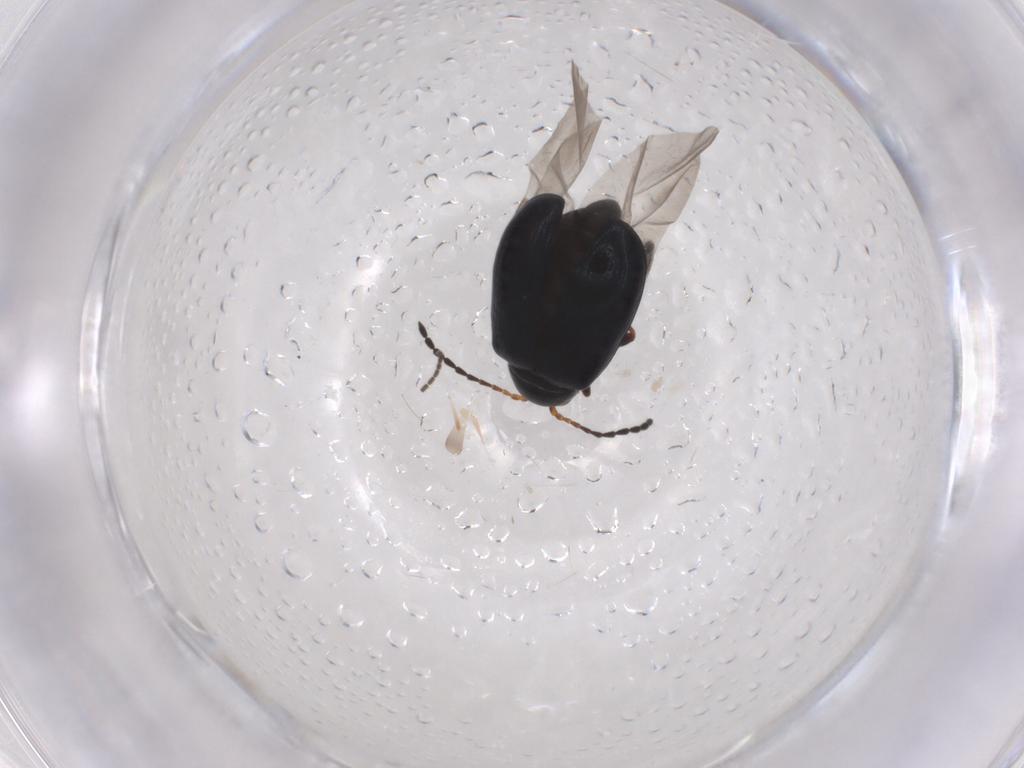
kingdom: Animalia
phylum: Arthropoda
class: Insecta
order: Coleoptera
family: Chrysomelidae
